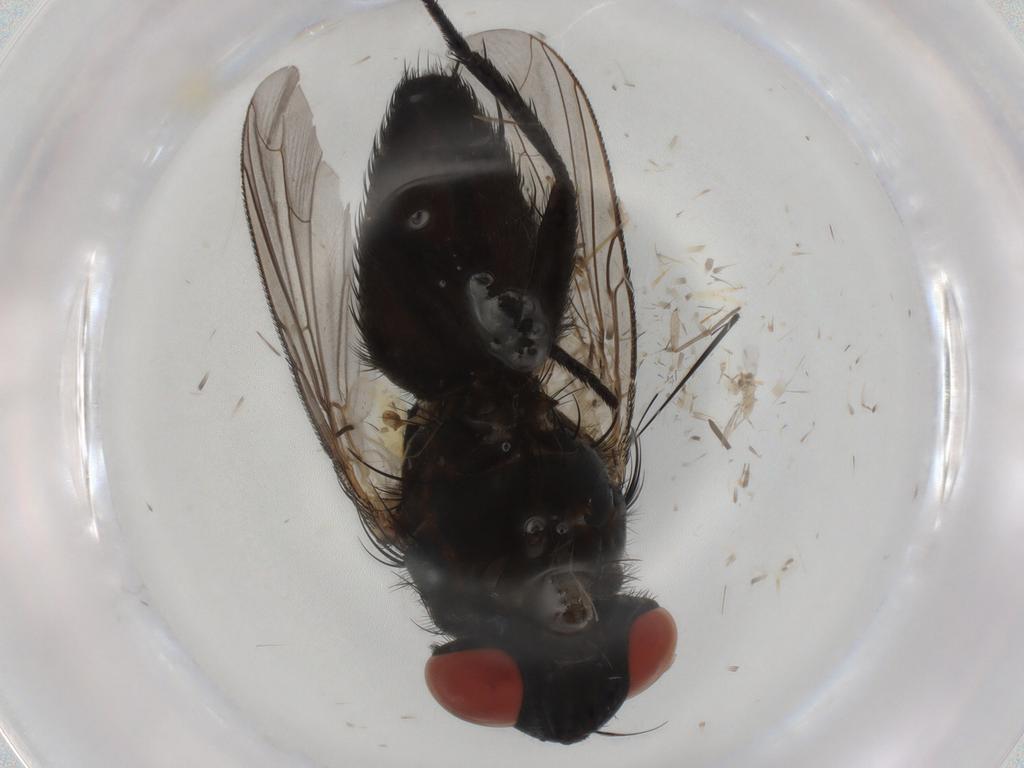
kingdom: Animalia
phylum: Arthropoda
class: Insecta
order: Diptera
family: Sarcophagidae
